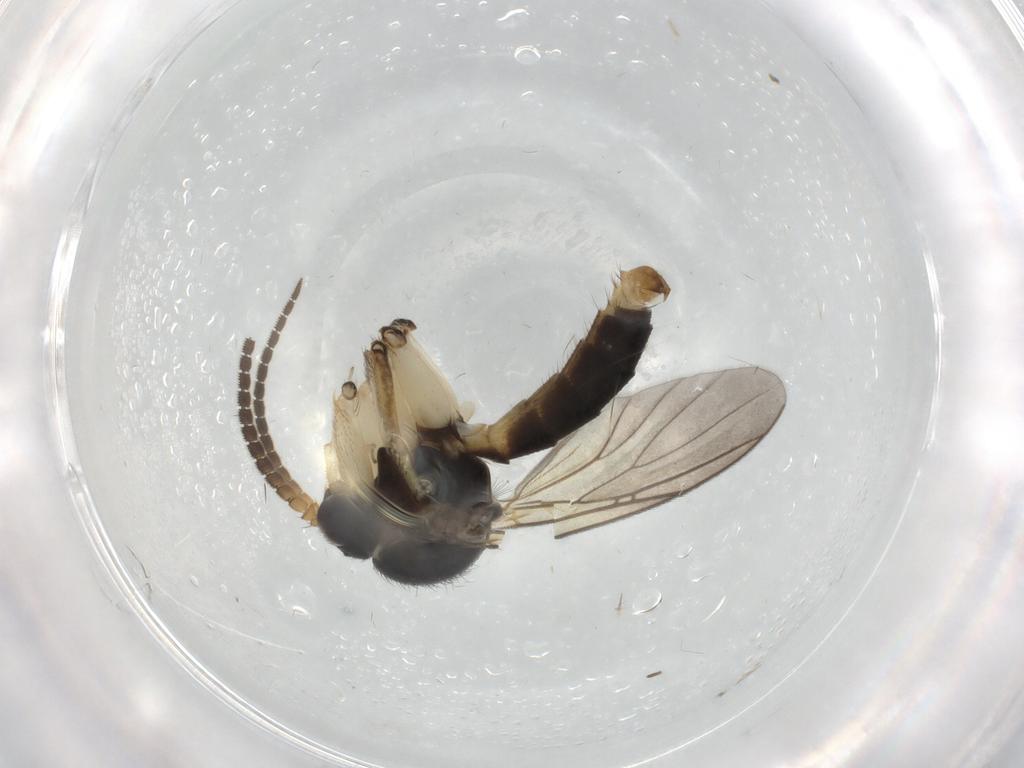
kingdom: Animalia
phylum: Arthropoda
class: Insecta
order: Diptera
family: Mycetophilidae
